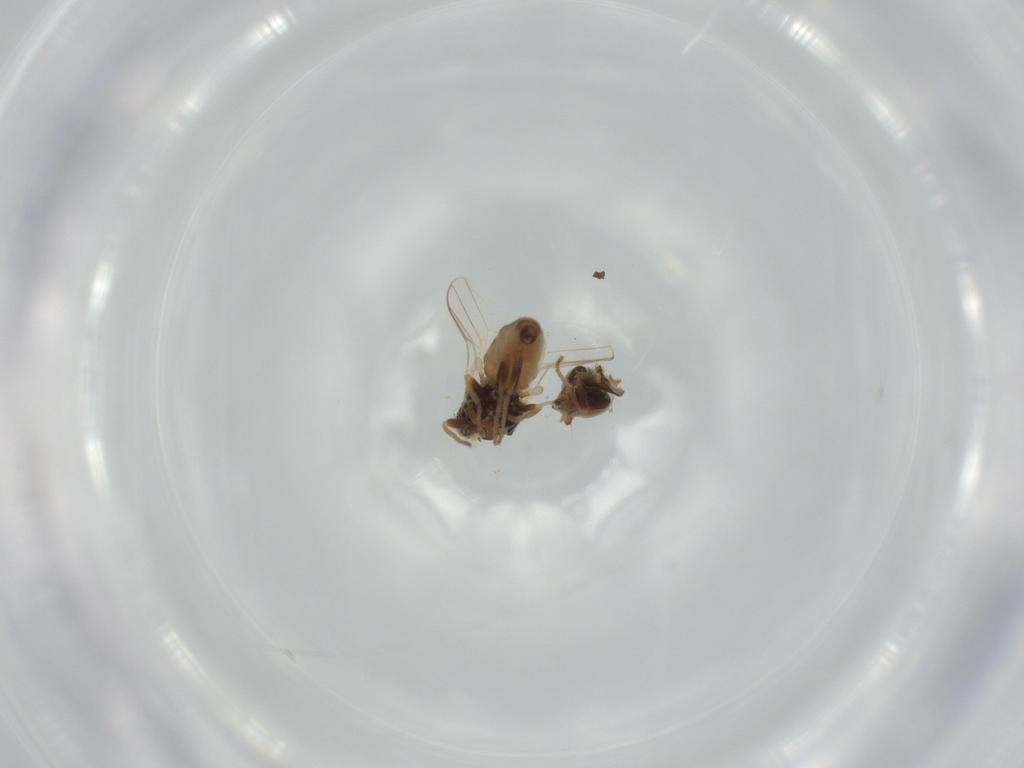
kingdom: Animalia
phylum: Arthropoda
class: Insecta
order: Diptera
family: Chloropidae
